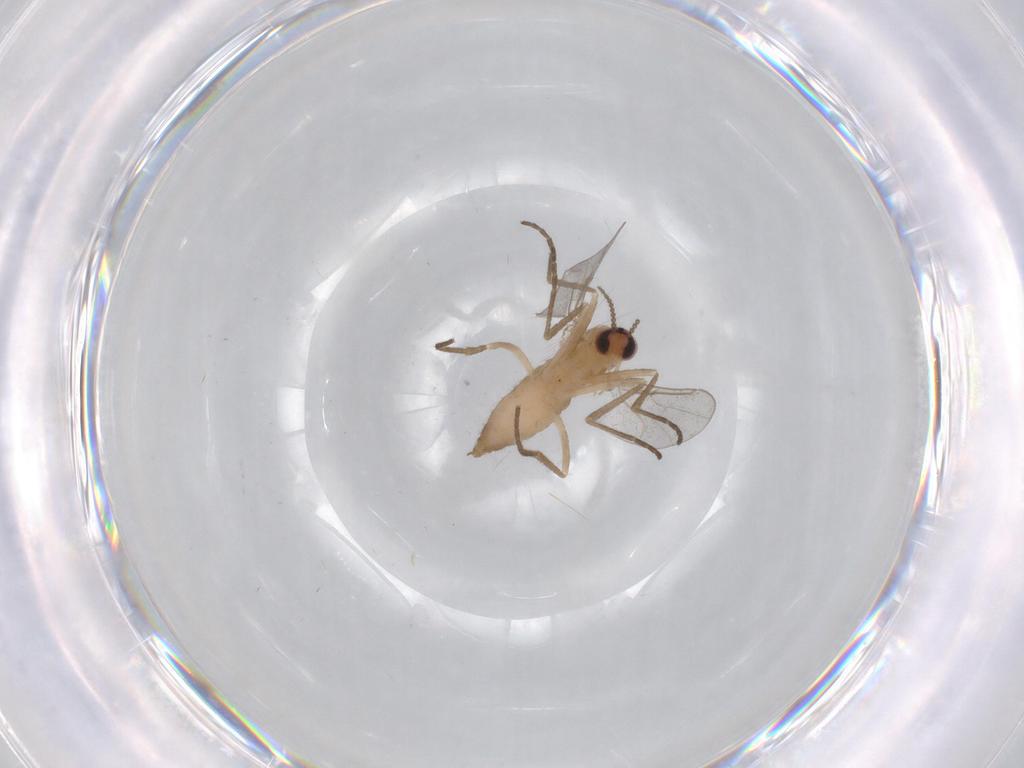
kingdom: Animalia
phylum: Arthropoda
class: Insecta
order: Diptera
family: Cecidomyiidae
